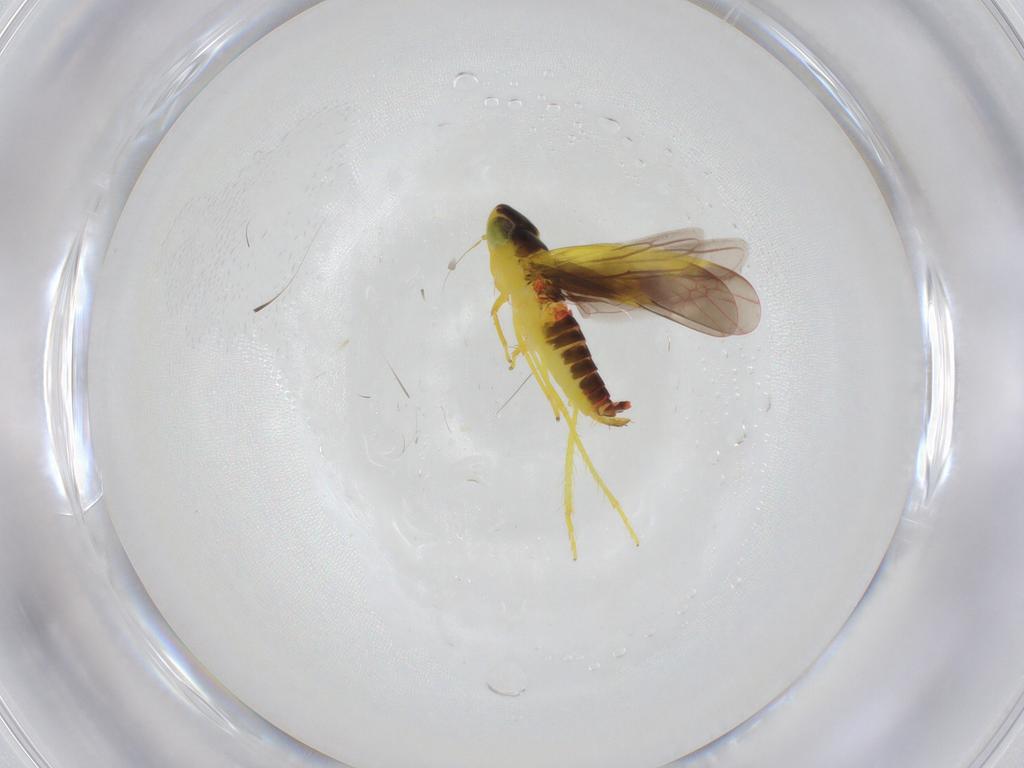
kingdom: Animalia
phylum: Arthropoda
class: Insecta
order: Hemiptera
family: Cicadellidae
